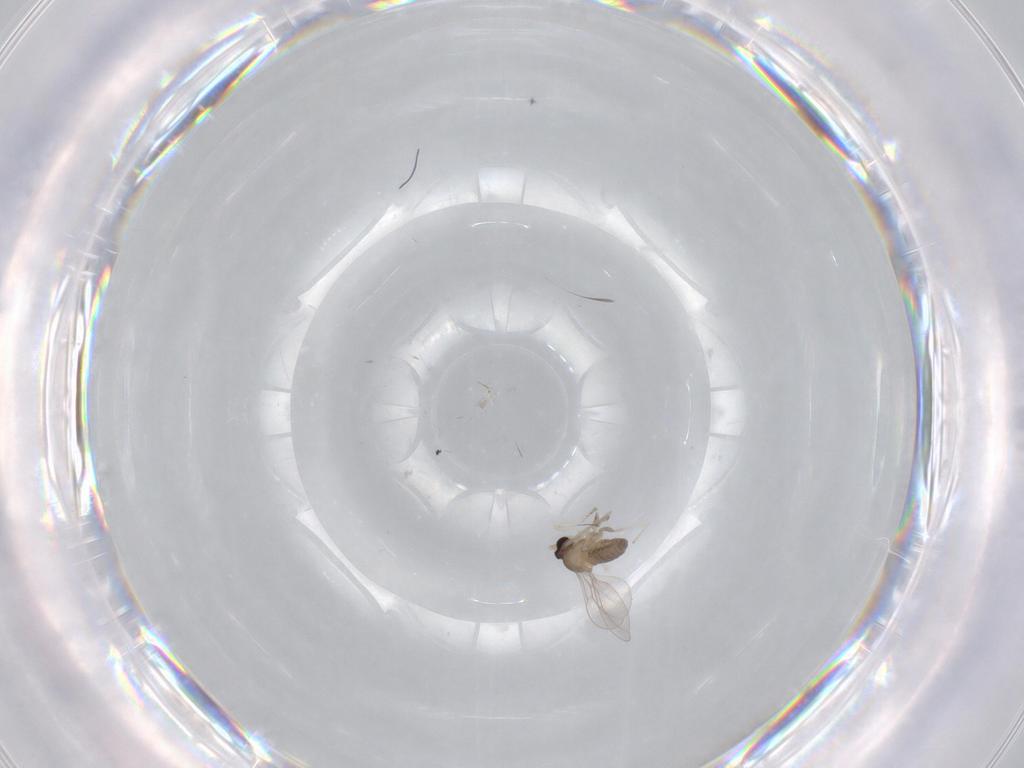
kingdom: Animalia
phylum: Arthropoda
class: Insecta
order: Diptera
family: Cecidomyiidae
